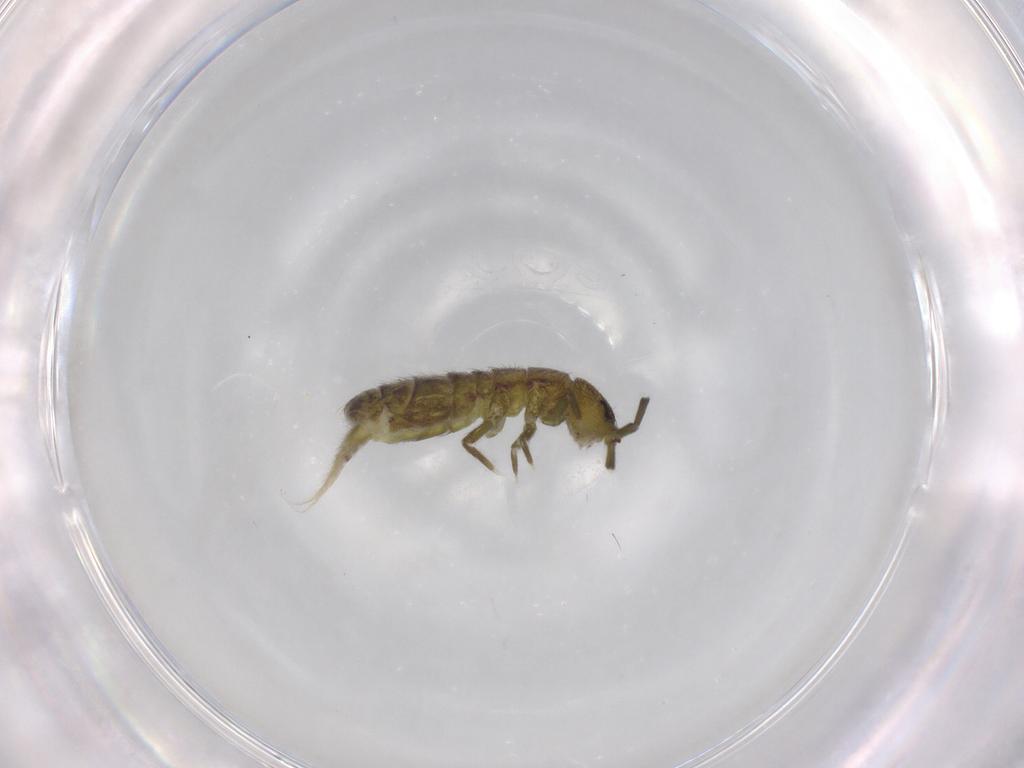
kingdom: Animalia
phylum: Arthropoda
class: Collembola
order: Entomobryomorpha
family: Isotomidae
